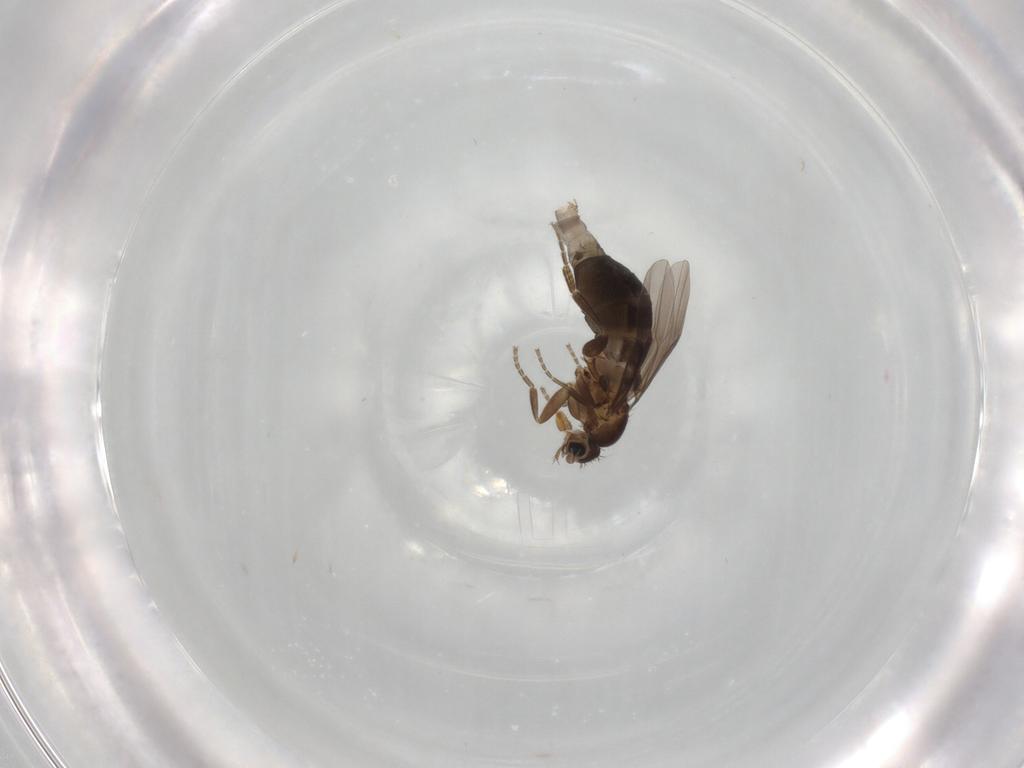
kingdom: Animalia
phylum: Arthropoda
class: Insecta
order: Diptera
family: Phoridae
